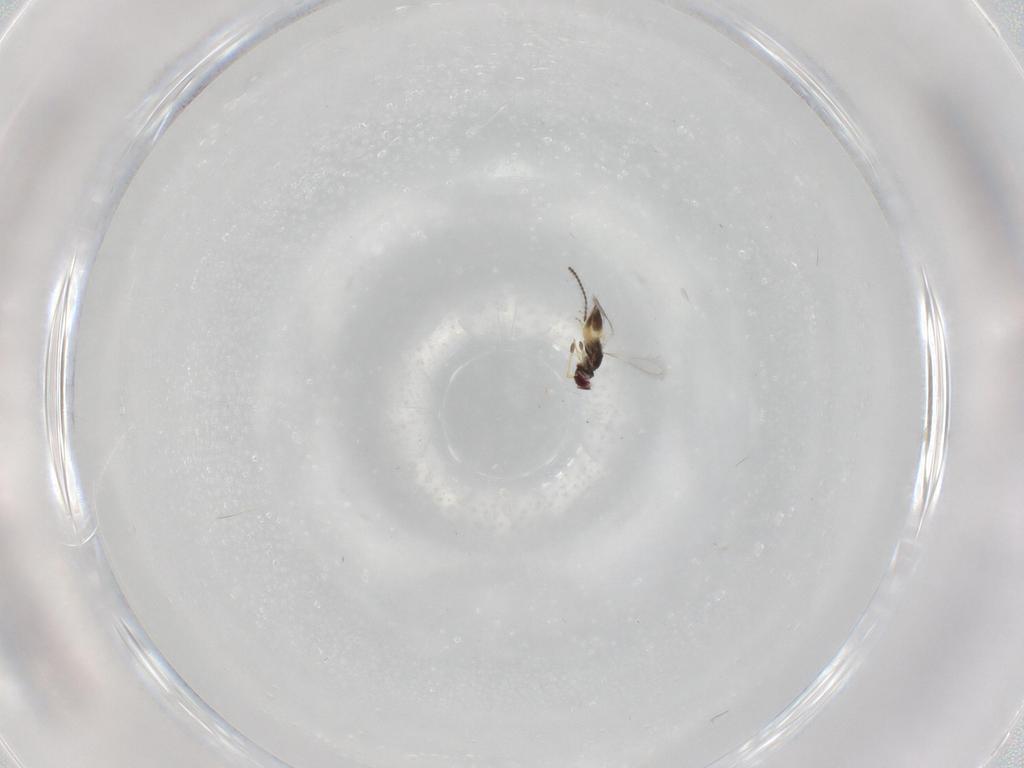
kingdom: Animalia
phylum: Arthropoda
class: Insecta
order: Hymenoptera
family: Mymaridae
